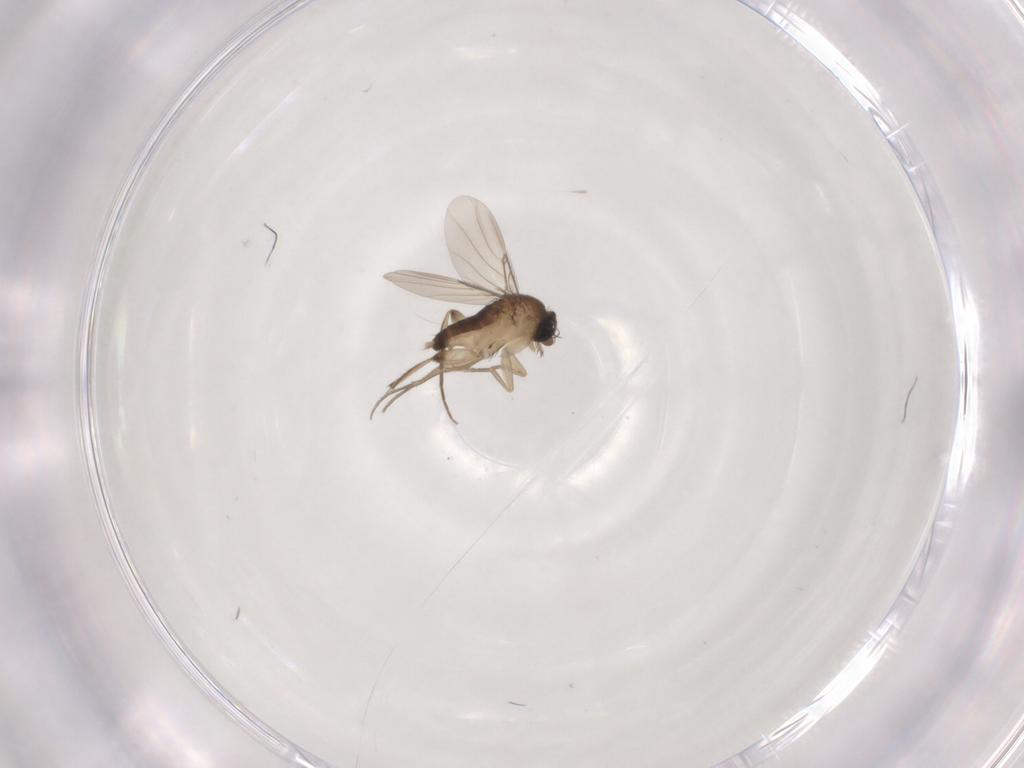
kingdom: Animalia
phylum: Arthropoda
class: Insecta
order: Diptera
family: Phoridae
